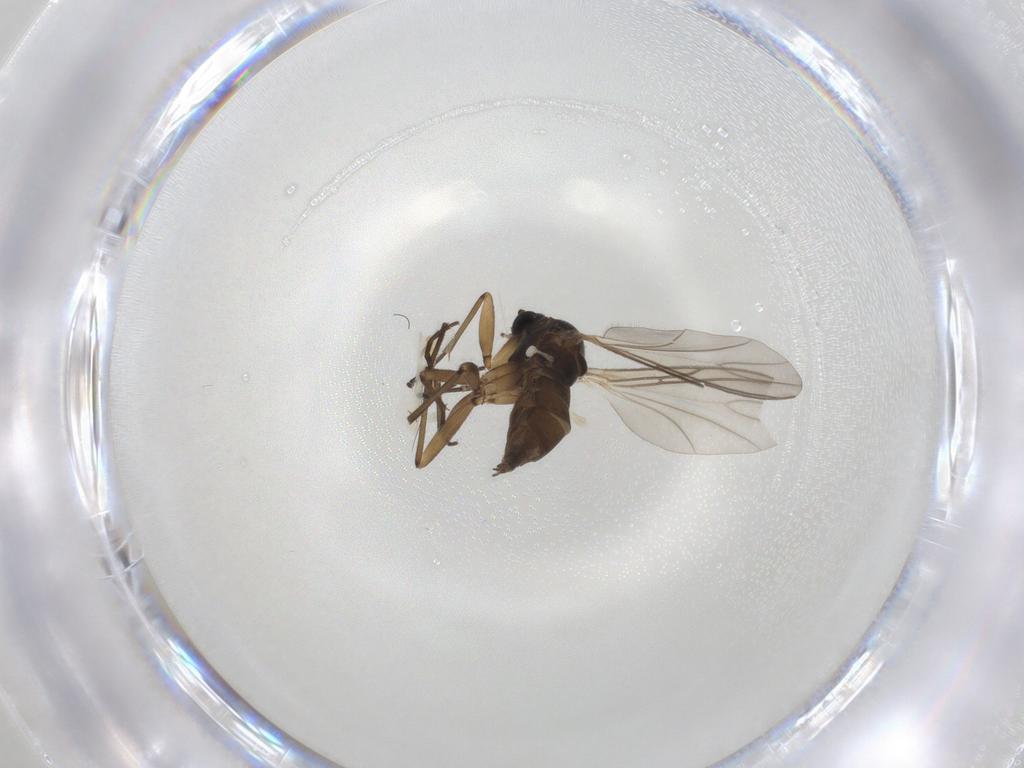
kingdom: Animalia
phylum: Arthropoda
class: Insecta
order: Diptera
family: Sciaridae
